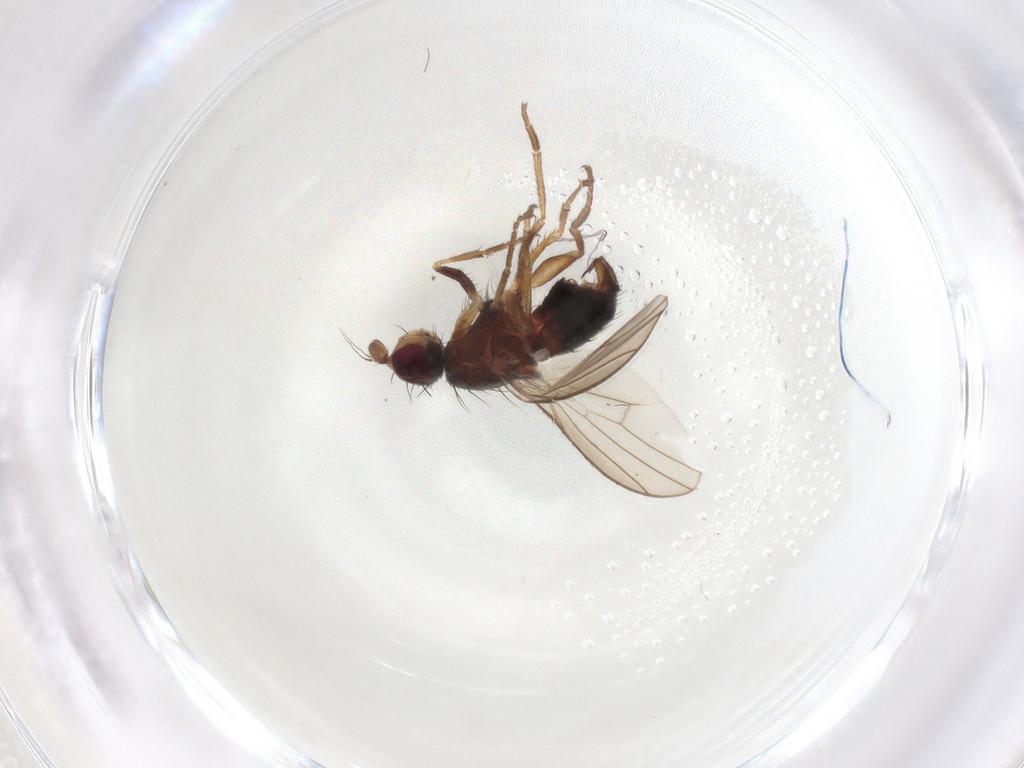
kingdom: Animalia
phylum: Arthropoda
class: Insecta
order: Diptera
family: Heleomyzidae
